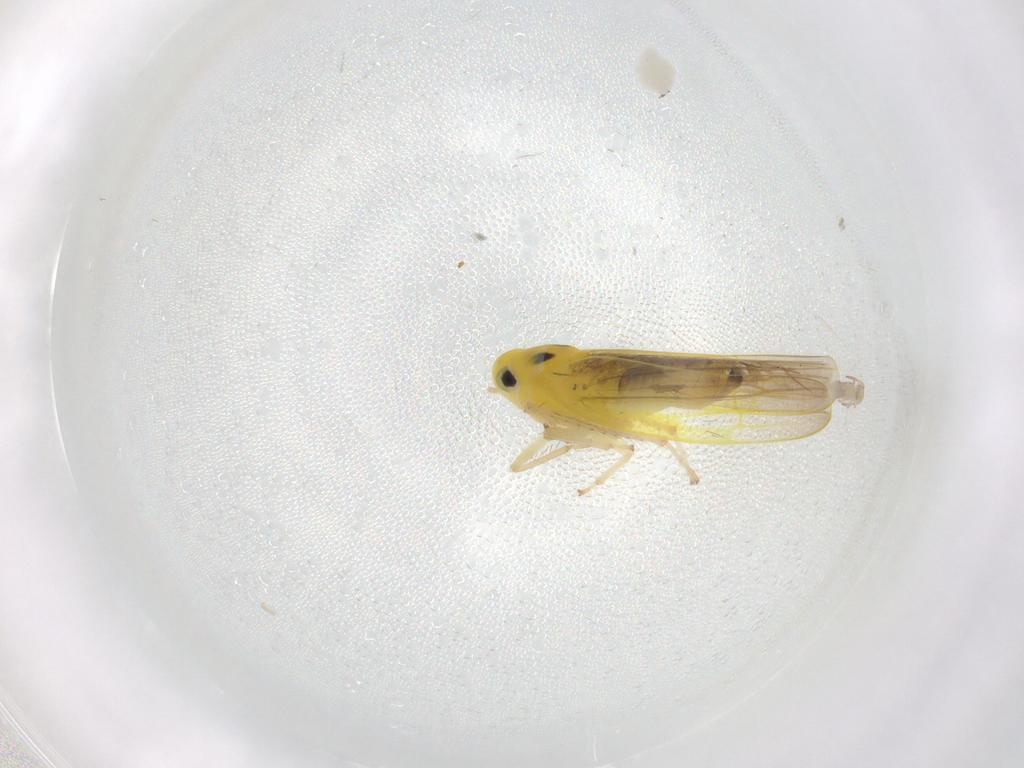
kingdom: Animalia
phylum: Arthropoda
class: Insecta
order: Hemiptera
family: Cicadellidae
